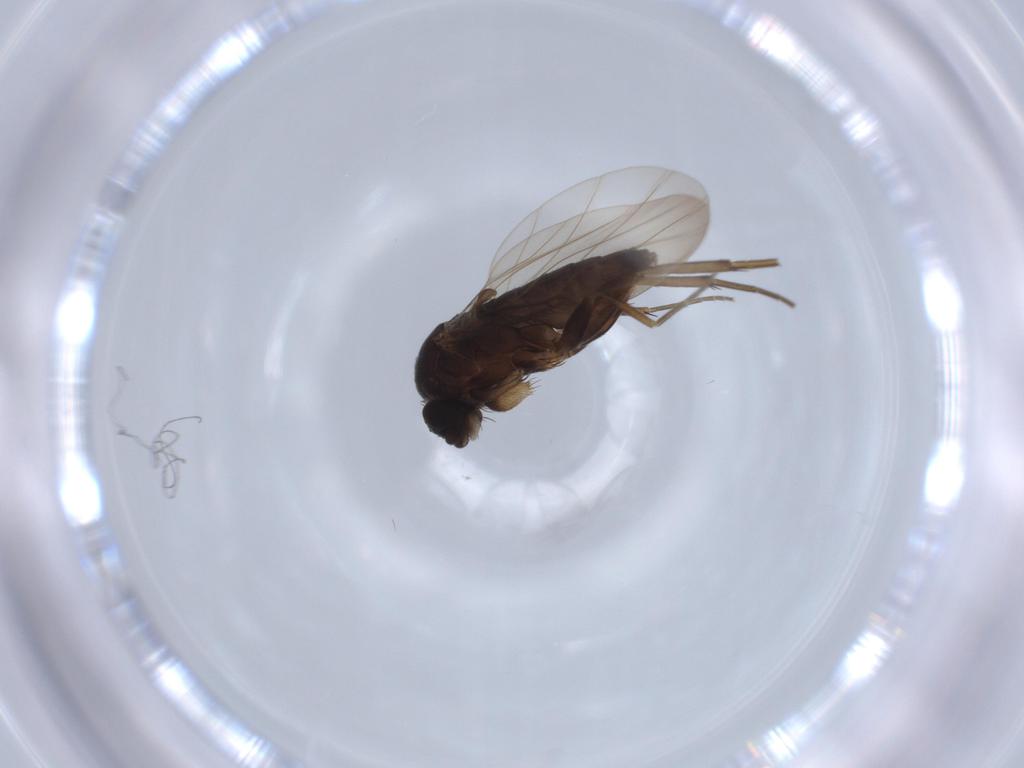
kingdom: Animalia
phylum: Arthropoda
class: Insecta
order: Diptera
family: Phoridae
